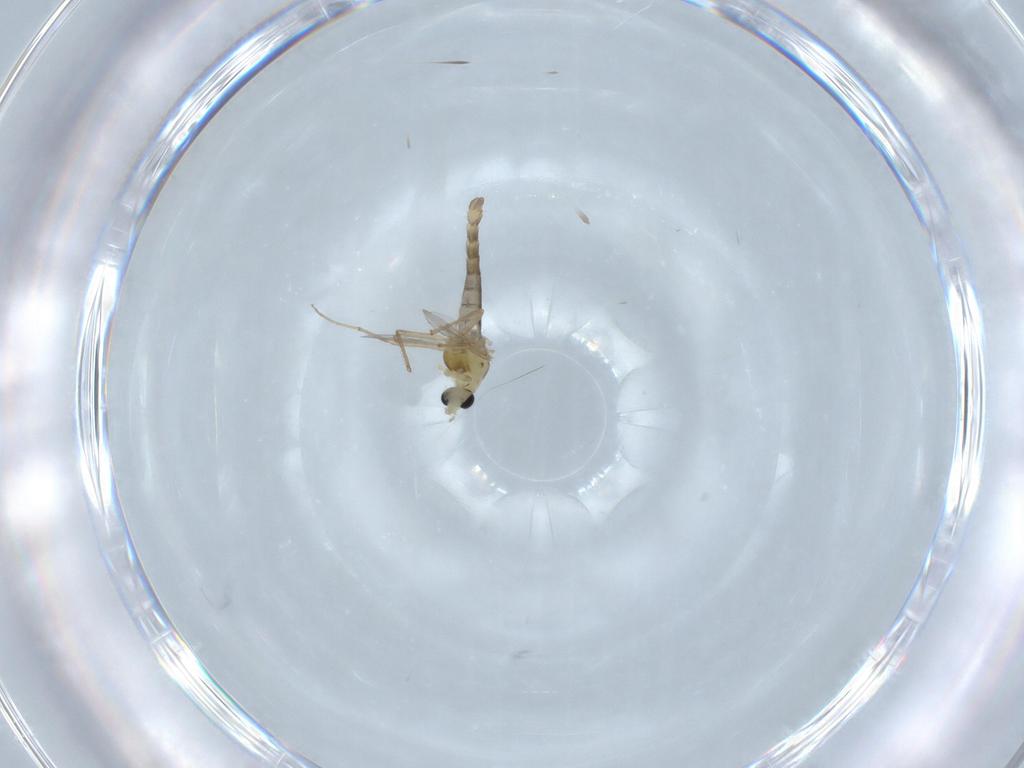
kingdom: Animalia
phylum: Arthropoda
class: Insecta
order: Diptera
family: Chironomidae
